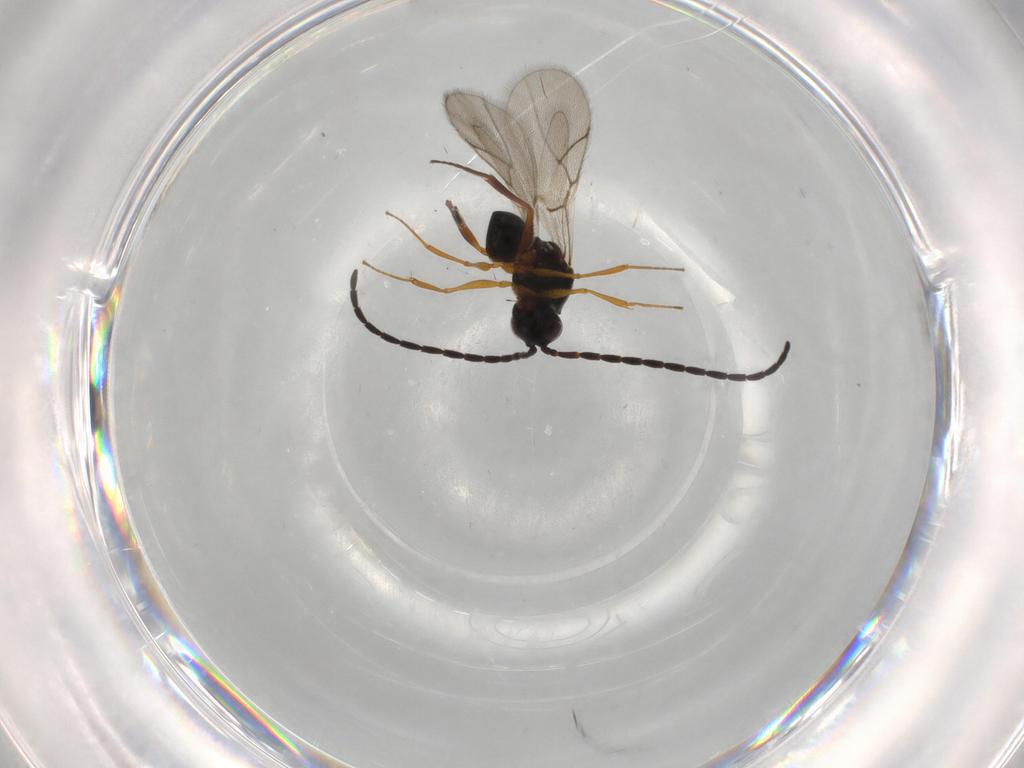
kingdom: Animalia
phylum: Arthropoda
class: Insecta
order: Hymenoptera
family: Figitidae
